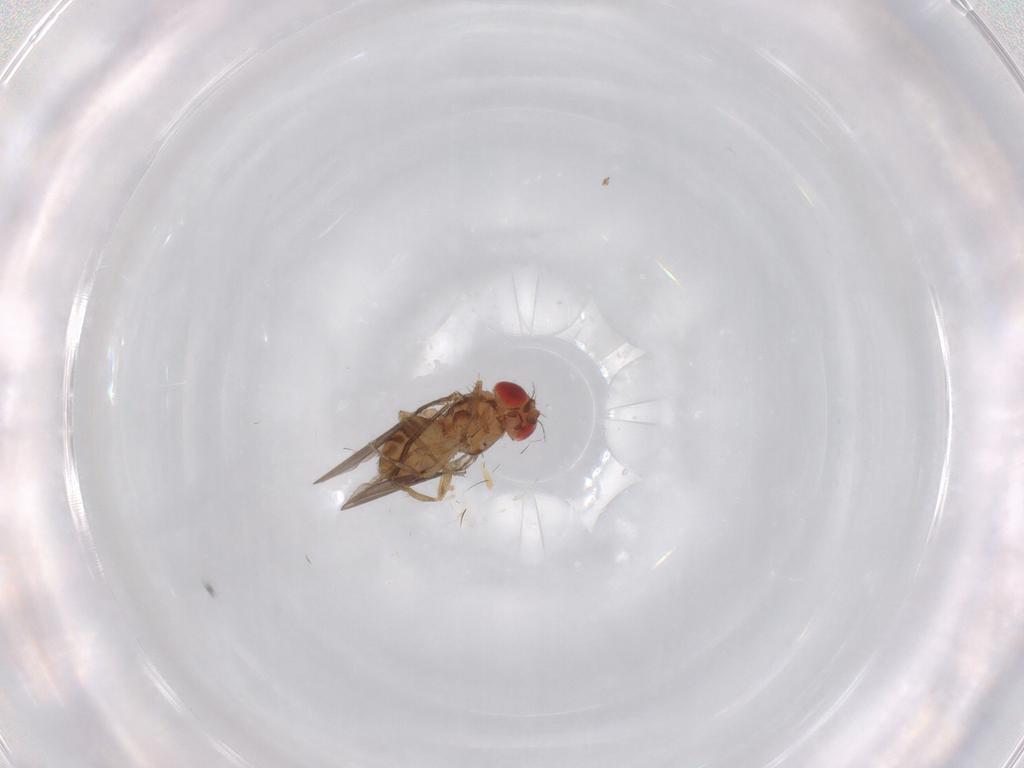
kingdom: Animalia
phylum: Arthropoda
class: Insecta
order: Diptera
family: Drosophilidae
